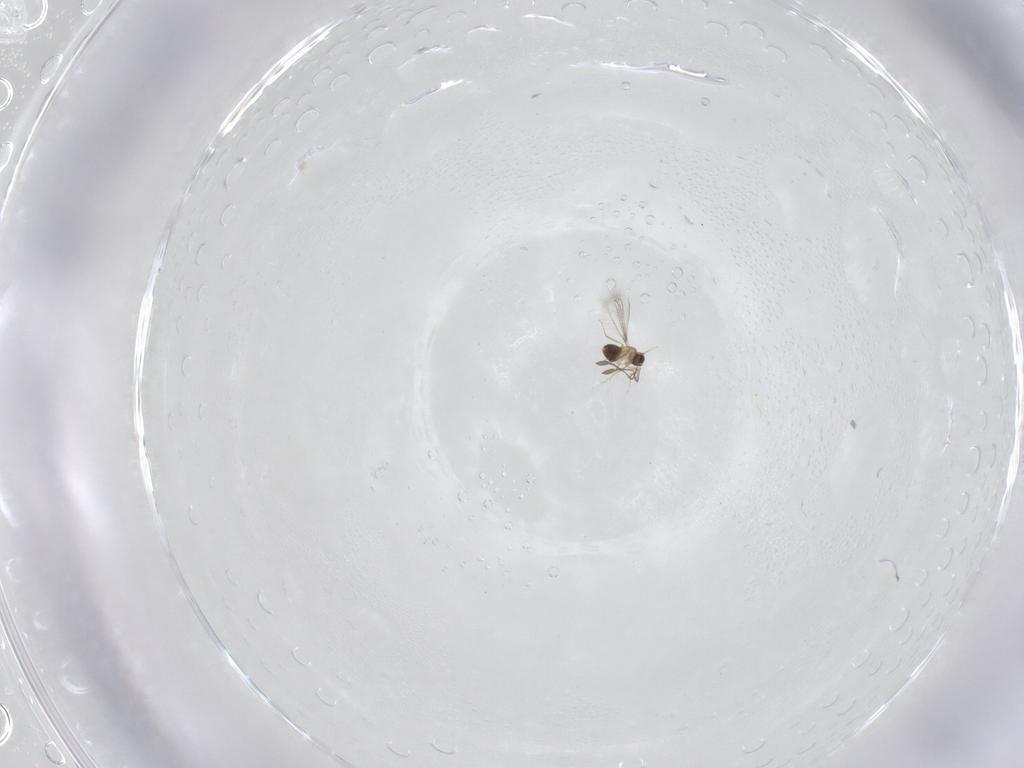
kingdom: Animalia
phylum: Arthropoda
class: Insecta
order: Hymenoptera
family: Mymaridae
